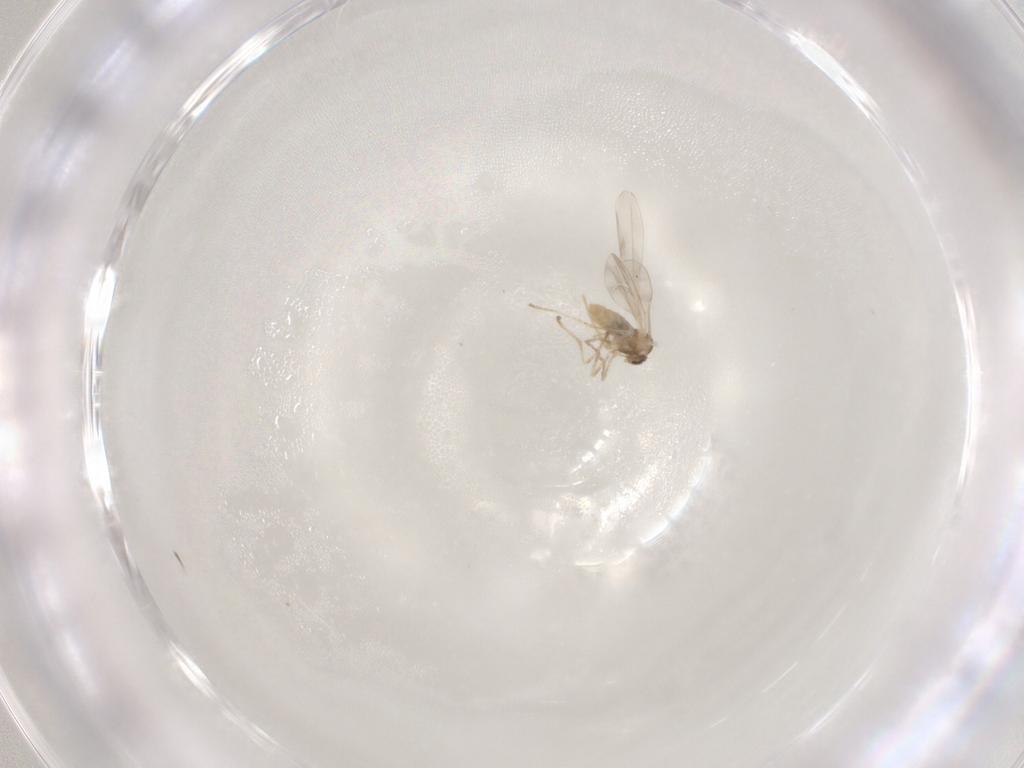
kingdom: Animalia
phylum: Arthropoda
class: Insecta
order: Diptera
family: Cecidomyiidae
